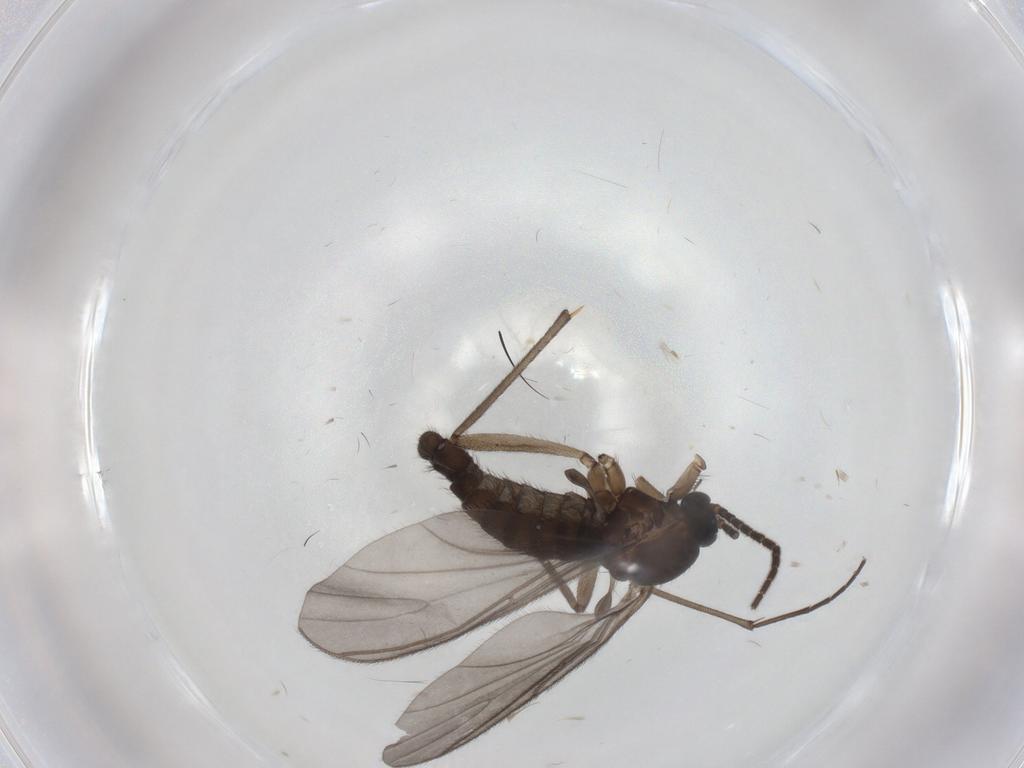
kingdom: Animalia
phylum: Arthropoda
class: Insecta
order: Diptera
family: Sciaridae
